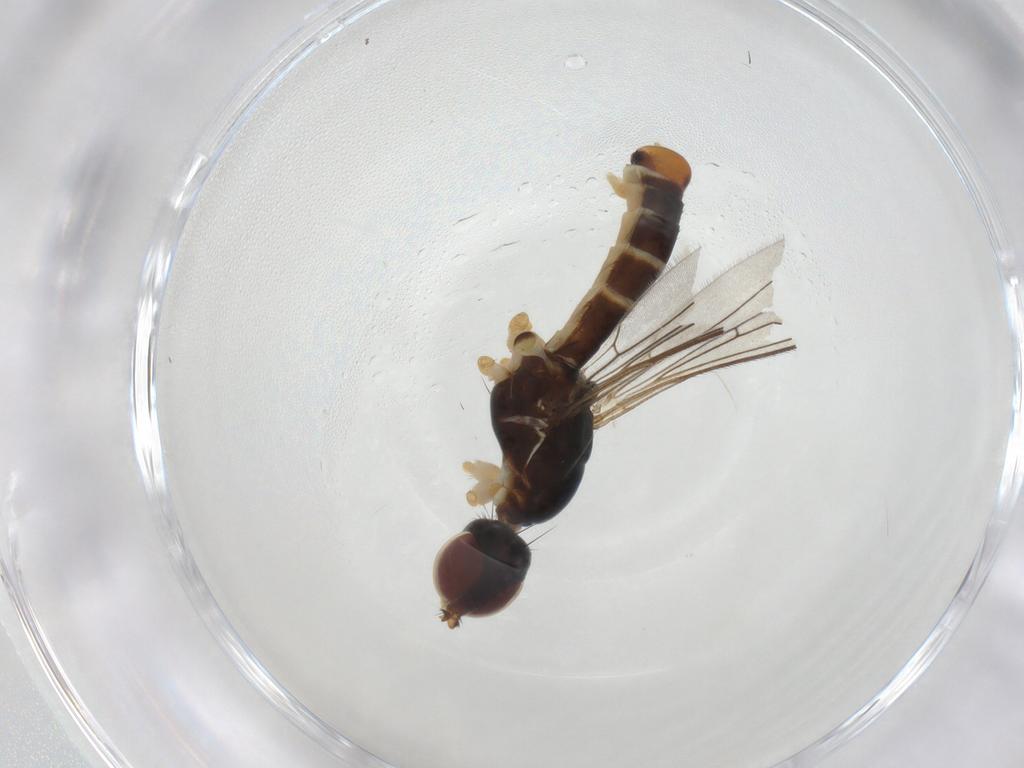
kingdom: Animalia
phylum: Arthropoda
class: Insecta
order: Diptera
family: Micropezidae
